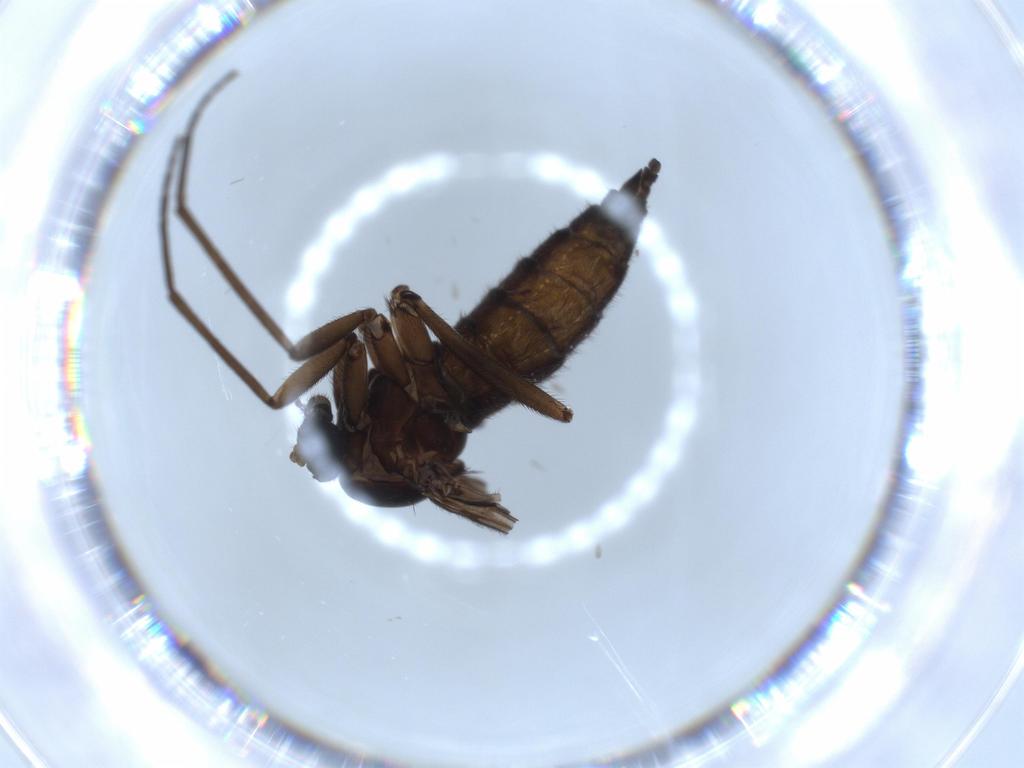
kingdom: Animalia
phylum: Arthropoda
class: Insecta
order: Diptera
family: Sciaridae
